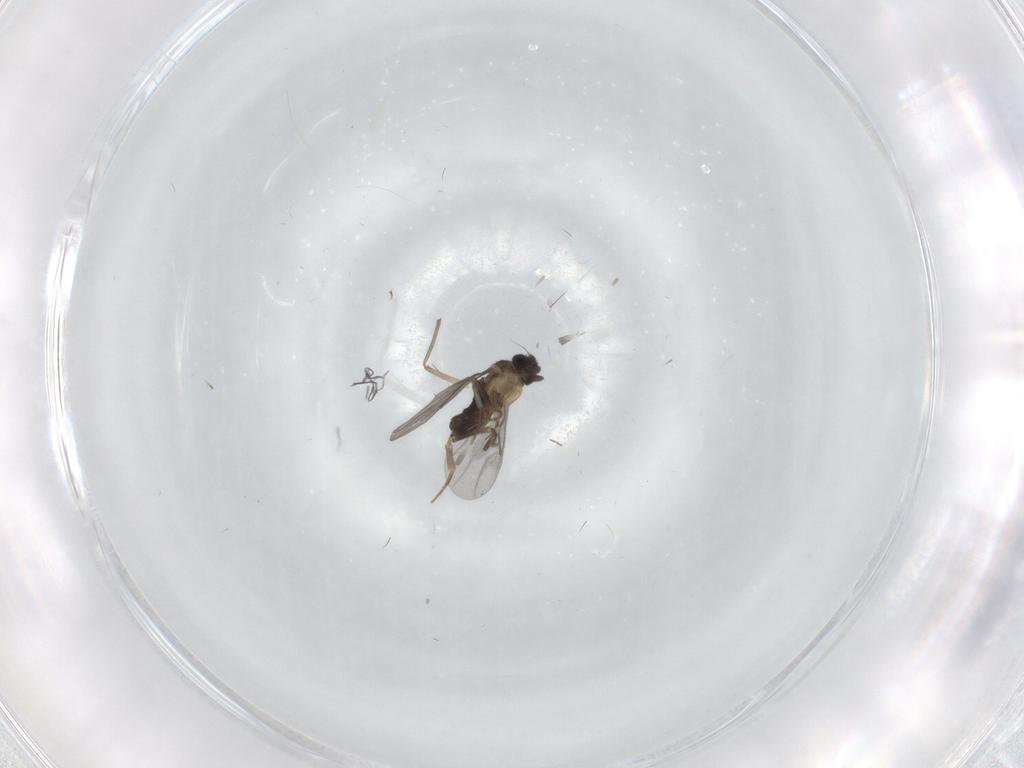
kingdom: Animalia
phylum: Arthropoda
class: Insecta
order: Diptera
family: Chironomidae
